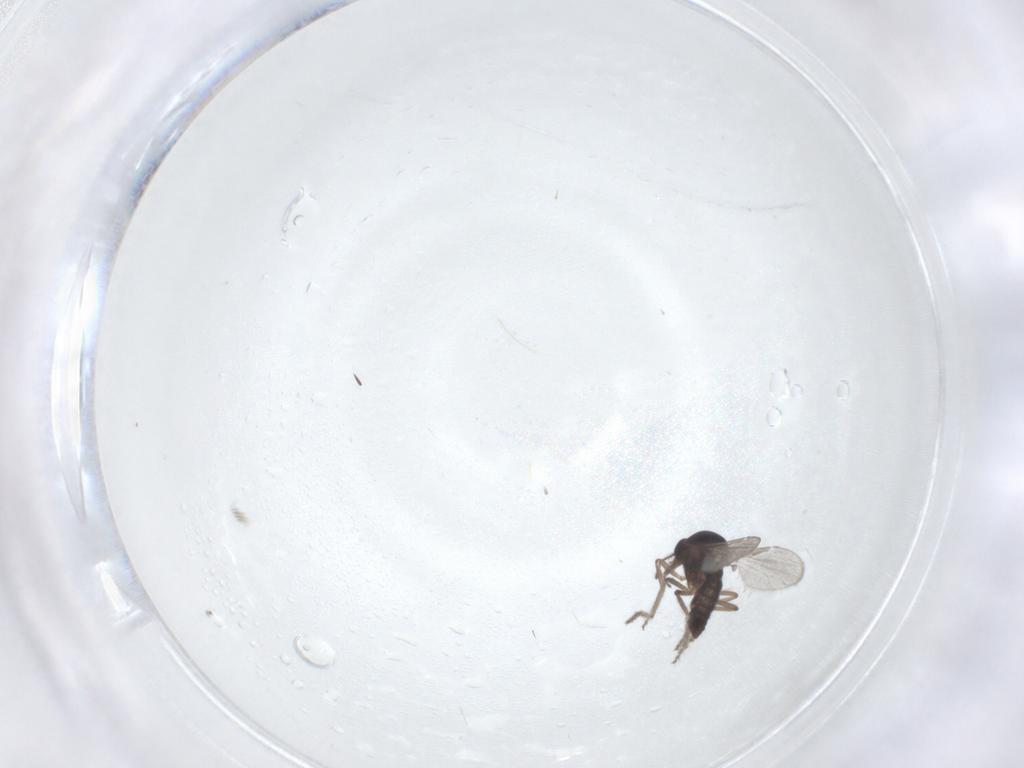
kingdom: Animalia
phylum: Arthropoda
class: Insecta
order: Diptera
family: Ceratopogonidae
